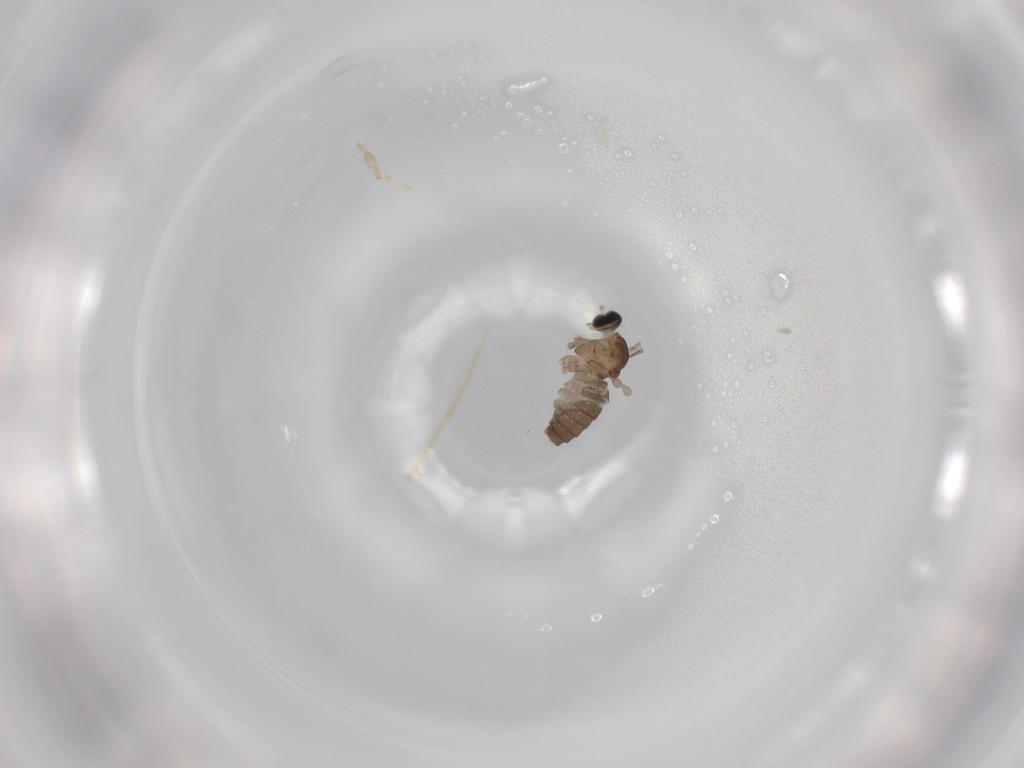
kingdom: Animalia
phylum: Arthropoda
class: Insecta
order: Diptera
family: Cecidomyiidae
